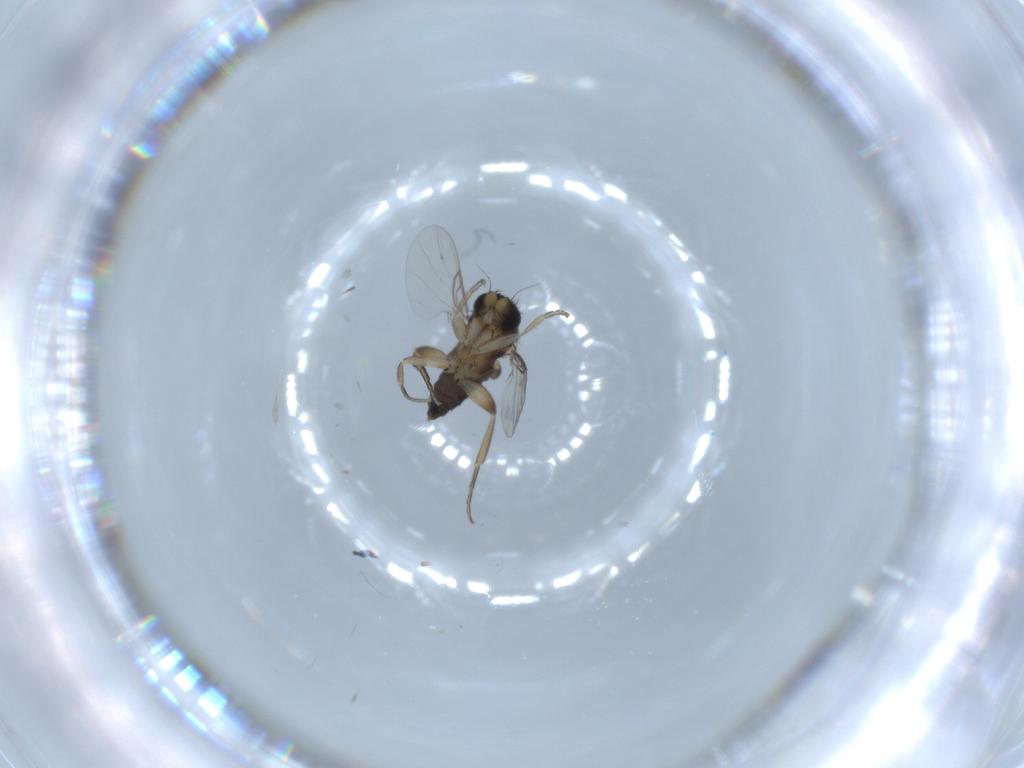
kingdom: Animalia
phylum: Arthropoda
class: Insecta
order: Diptera
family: Phoridae
